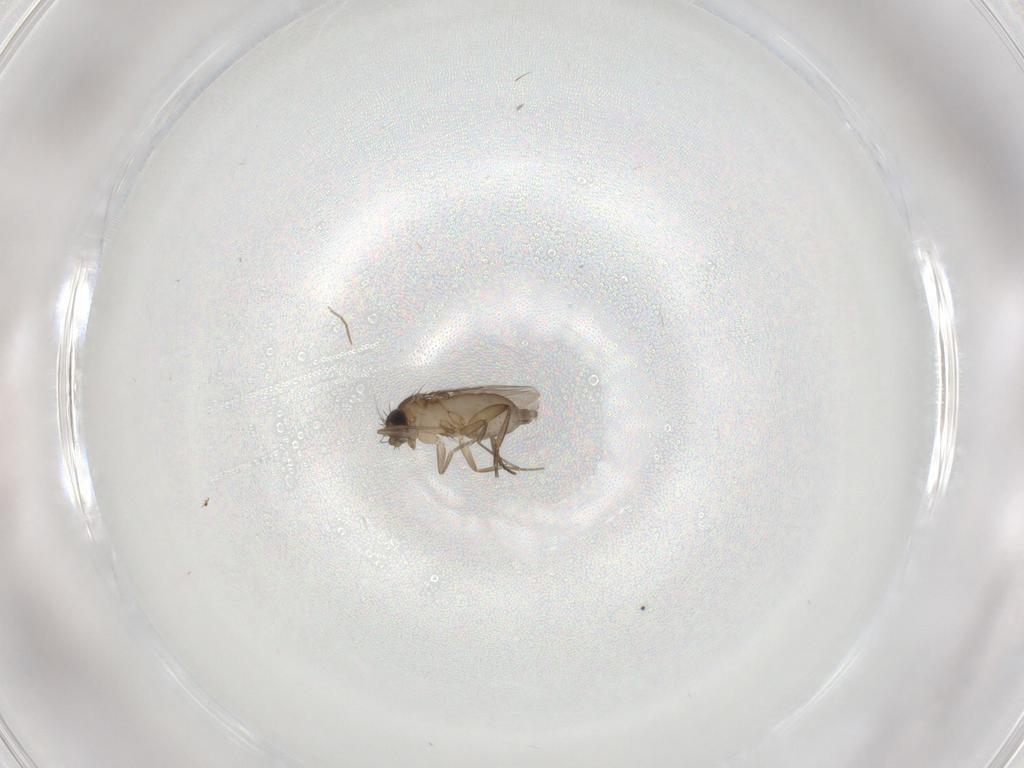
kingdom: Animalia
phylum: Arthropoda
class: Insecta
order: Diptera
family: Phoridae
